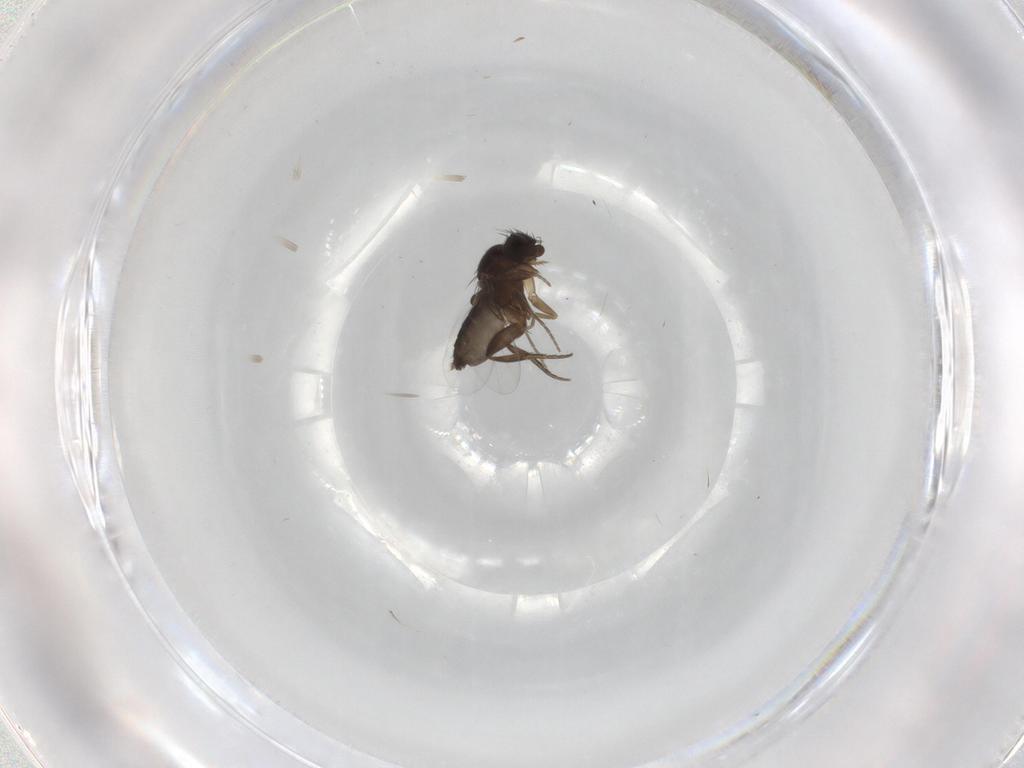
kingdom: Animalia
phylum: Arthropoda
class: Insecta
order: Diptera
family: Phoridae
